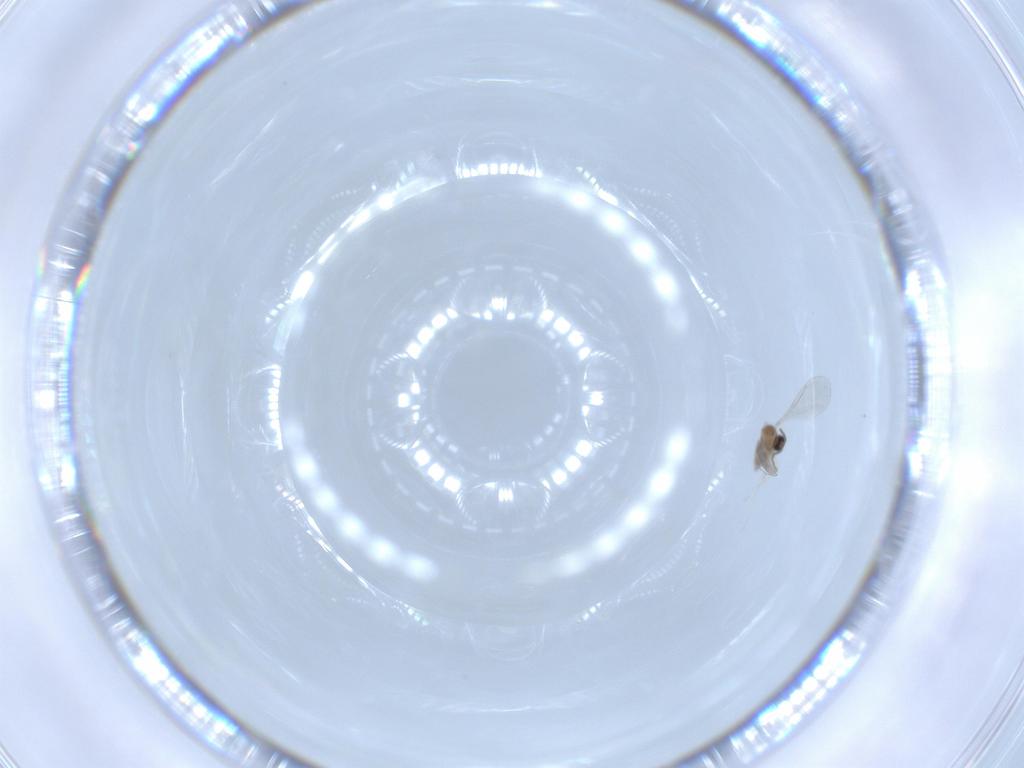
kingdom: Animalia
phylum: Arthropoda
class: Insecta
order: Diptera
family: Cecidomyiidae
